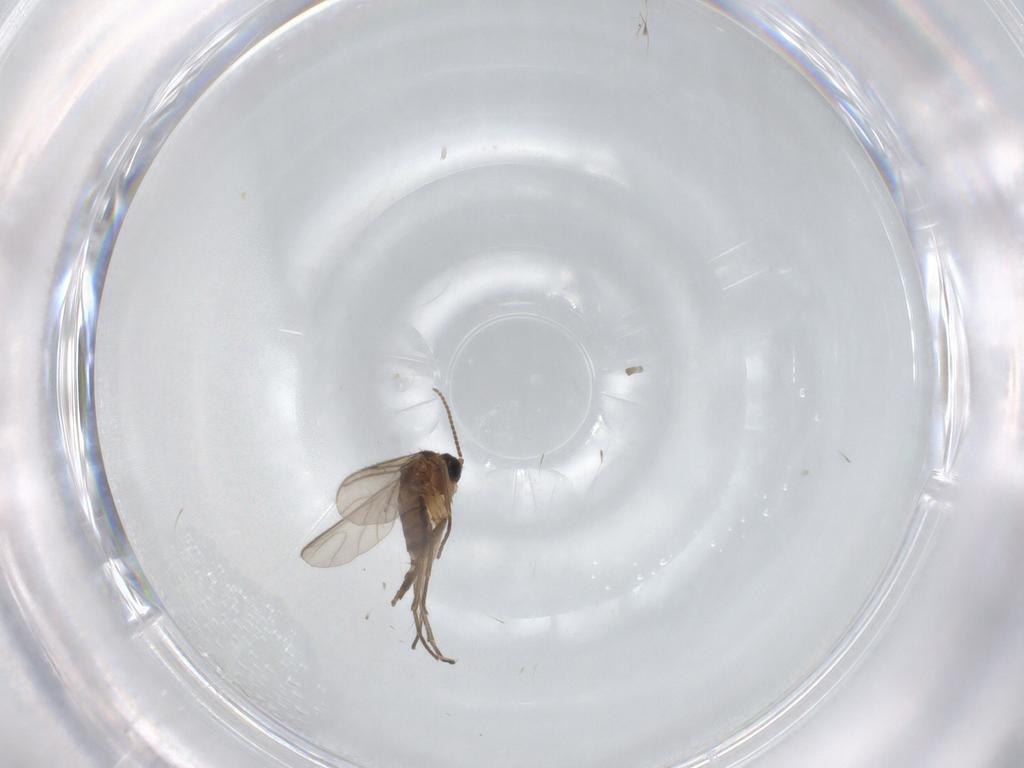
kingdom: Animalia
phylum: Arthropoda
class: Insecta
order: Diptera
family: Sciaridae
